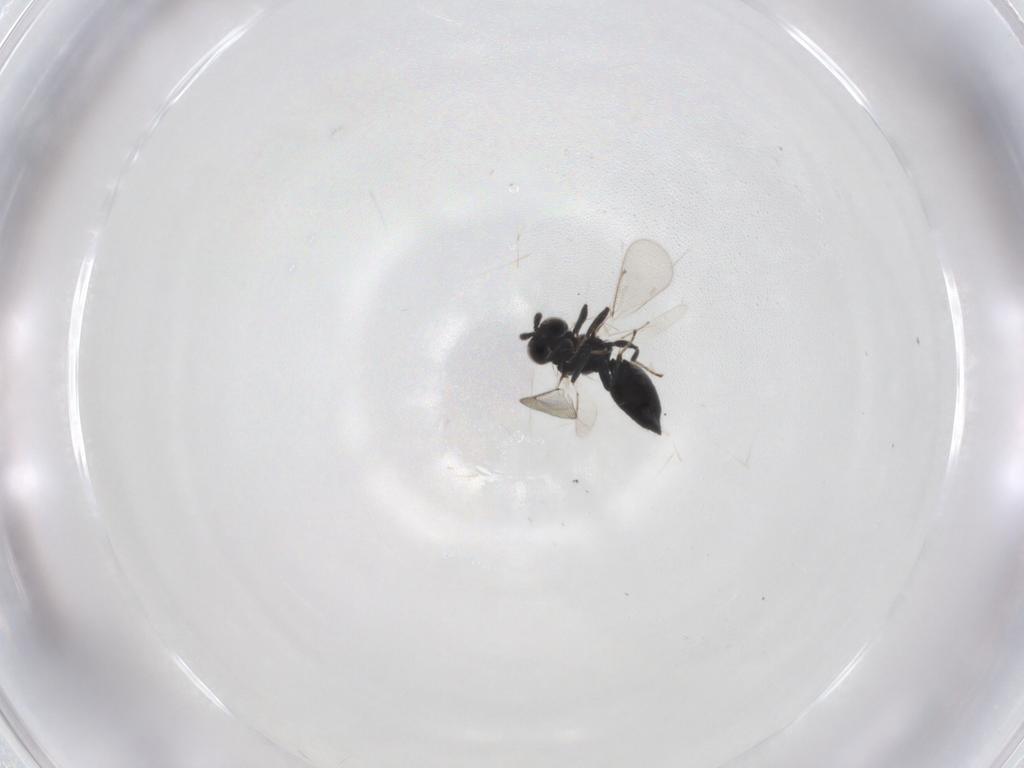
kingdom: Animalia
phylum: Arthropoda
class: Insecta
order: Hymenoptera
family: Eulophidae
